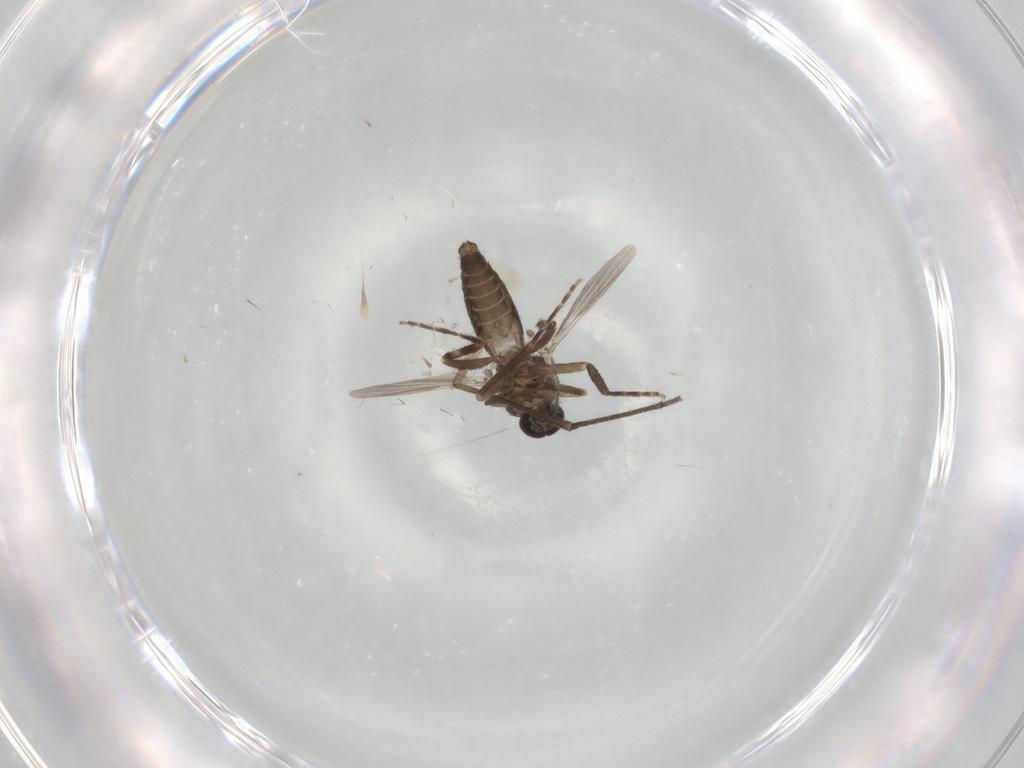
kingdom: Animalia
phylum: Arthropoda
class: Insecta
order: Diptera
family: Ceratopogonidae
